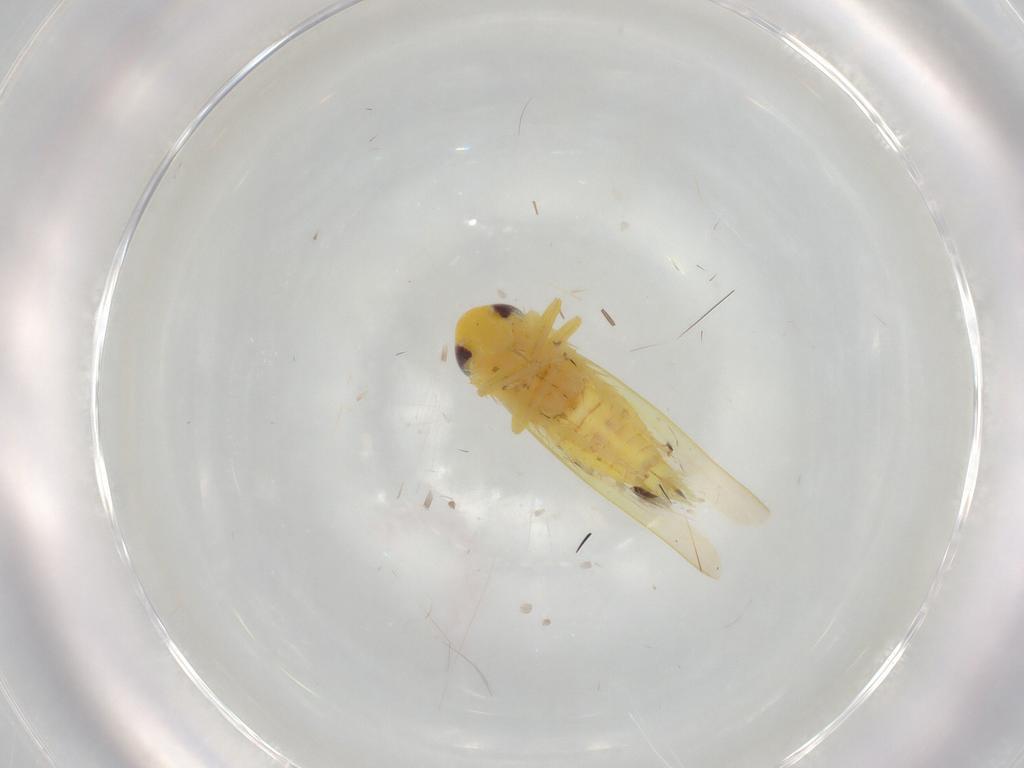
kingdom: Animalia
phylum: Arthropoda
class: Insecta
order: Hemiptera
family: Cicadellidae
